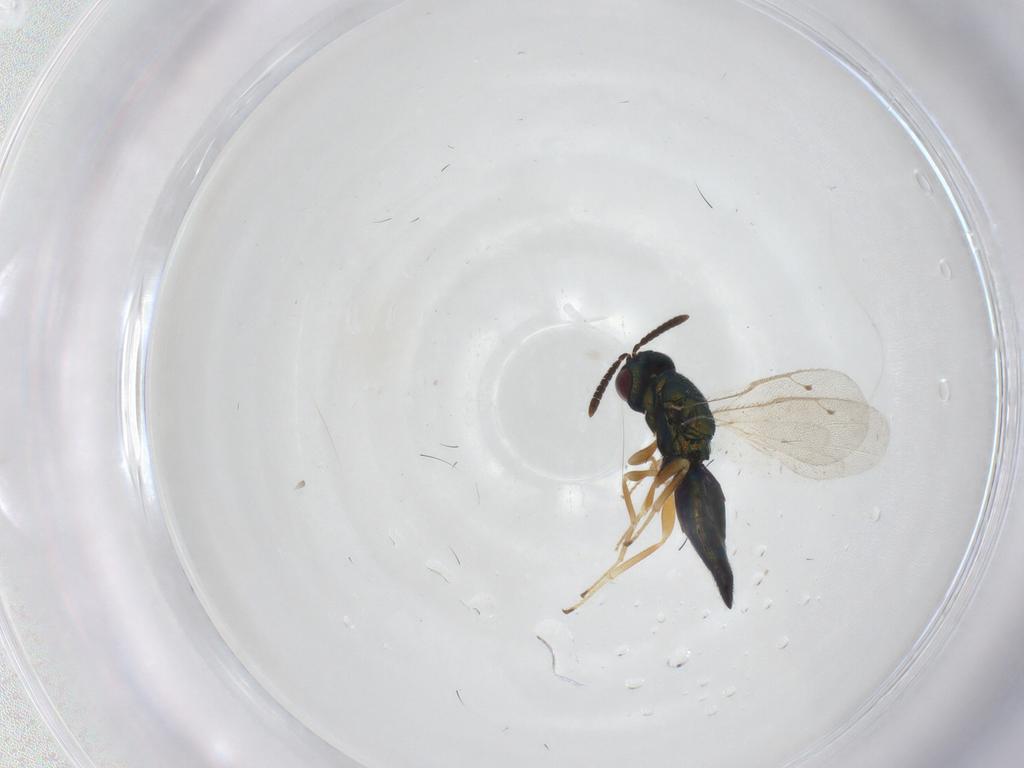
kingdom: Animalia
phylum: Arthropoda
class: Insecta
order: Hymenoptera
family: Pteromalidae
